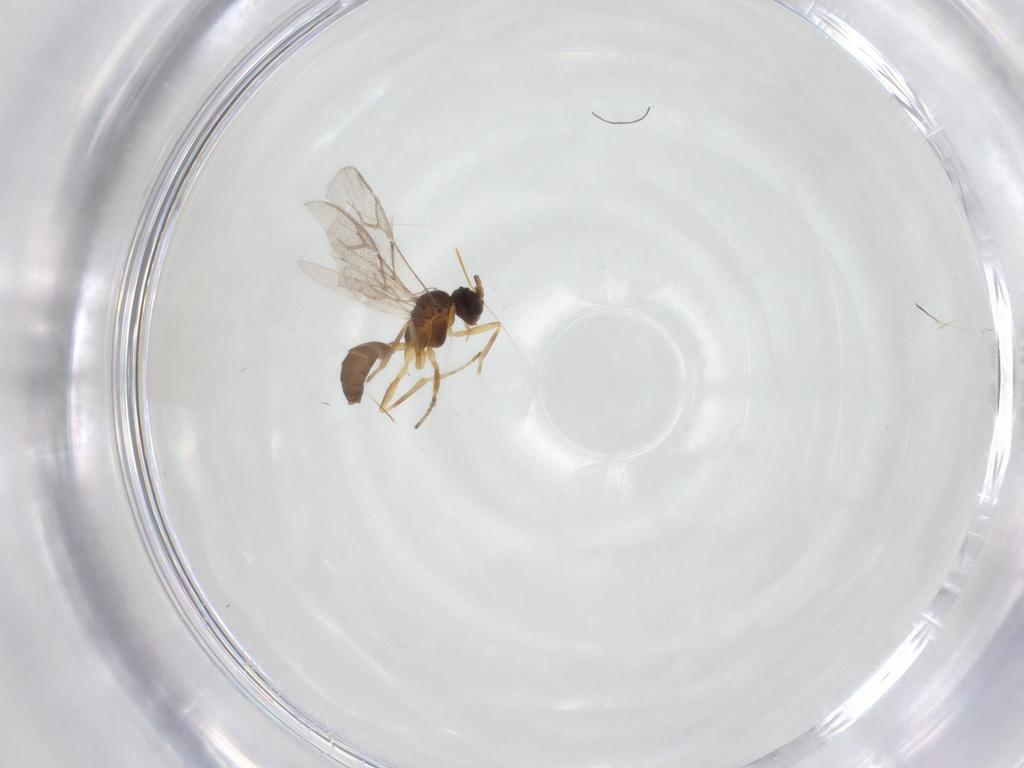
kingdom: Animalia
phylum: Arthropoda
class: Insecta
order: Hymenoptera
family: Braconidae
